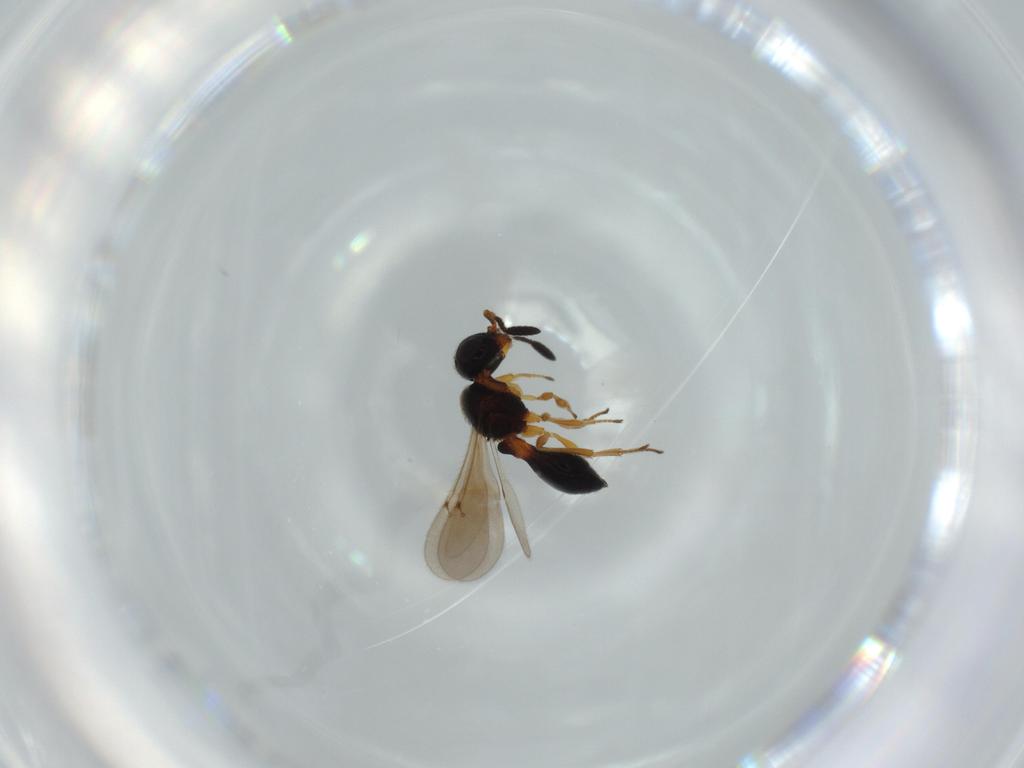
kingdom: Animalia
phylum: Arthropoda
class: Insecta
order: Hymenoptera
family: Scelionidae
